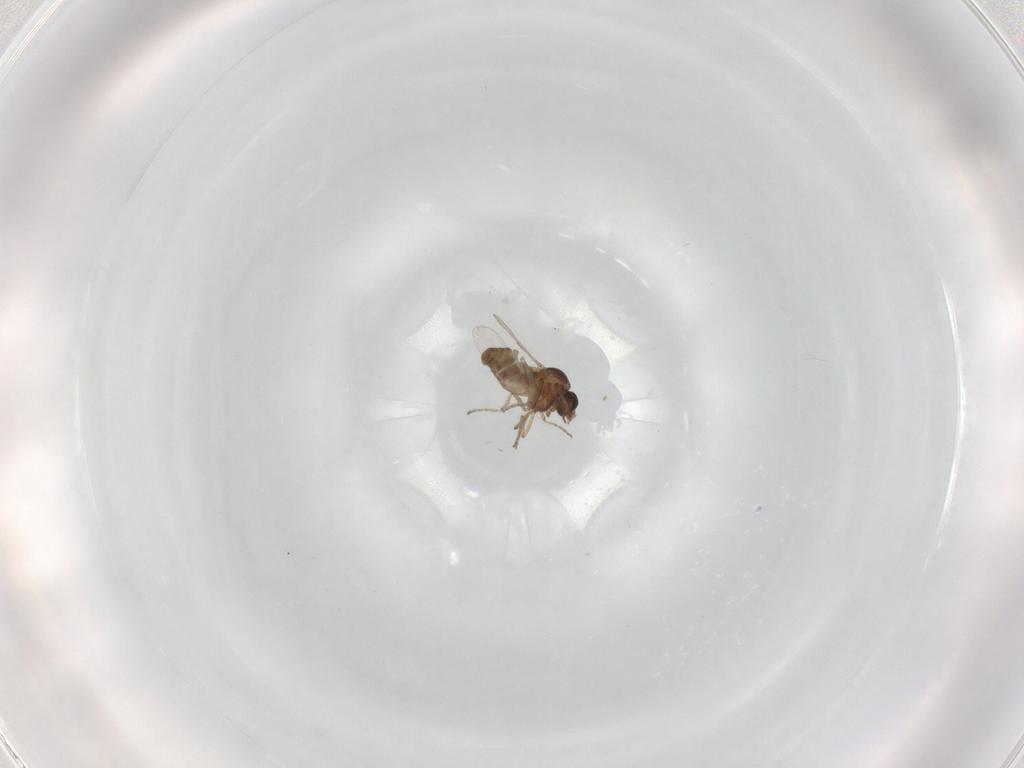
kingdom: Animalia
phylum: Arthropoda
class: Insecta
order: Diptera
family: Ceratopogonidae
